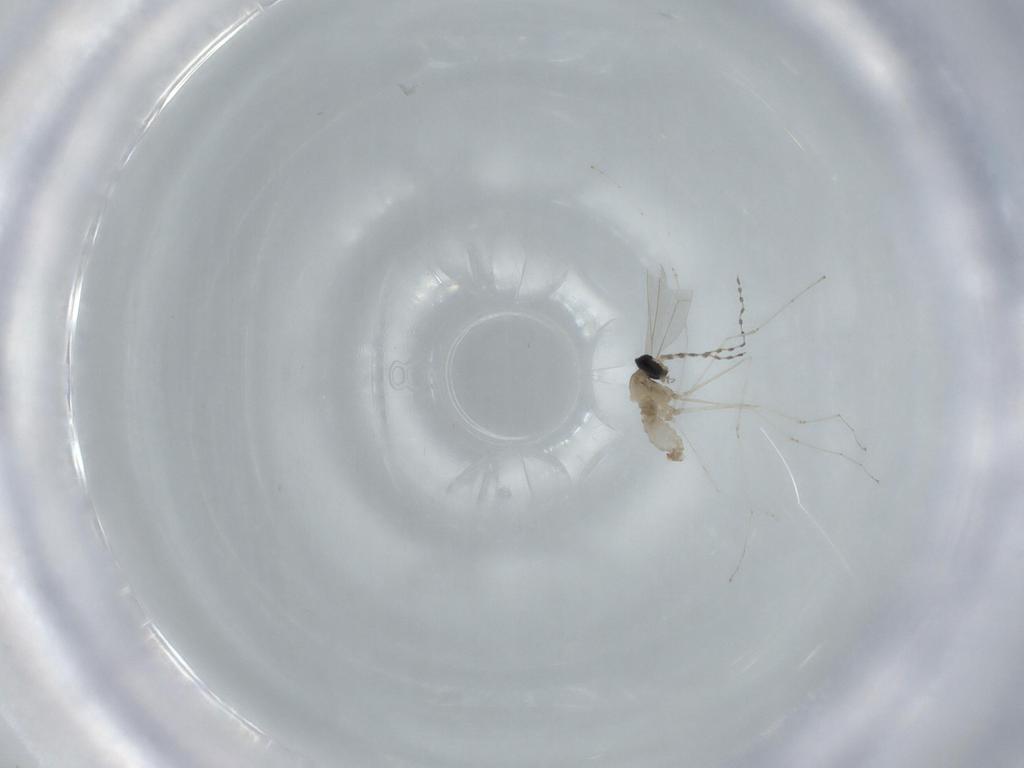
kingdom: Animalia
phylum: Arthropoda
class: Insecta
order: Diptera
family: Cecidomyiidae
